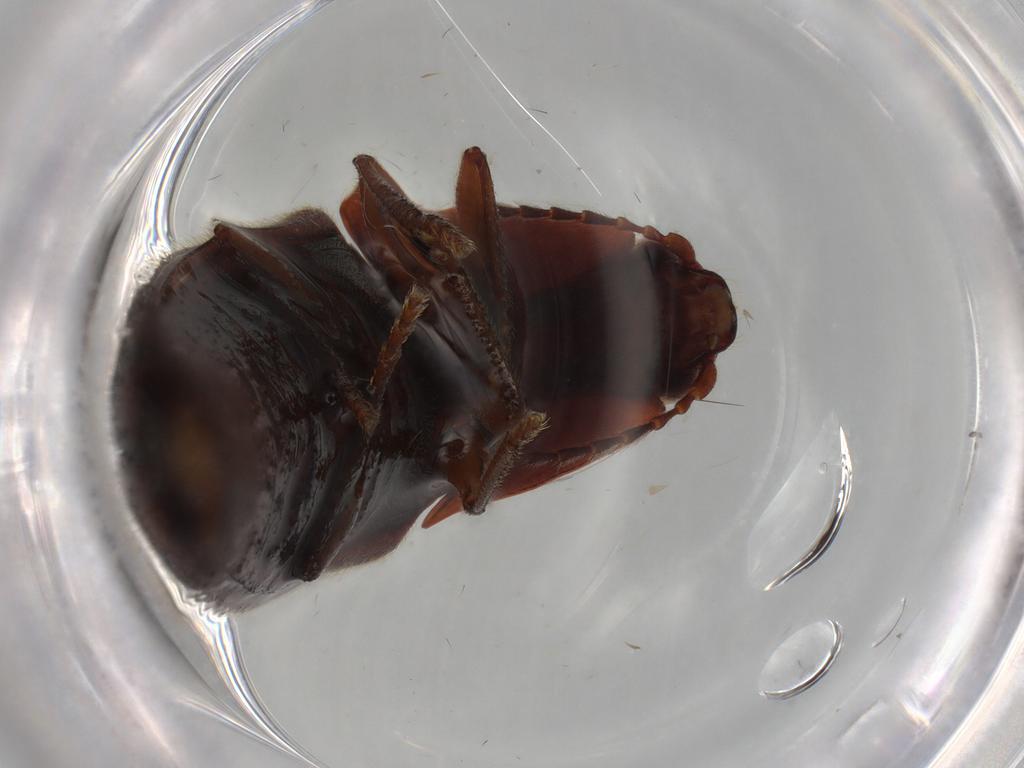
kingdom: Animalia
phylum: Arthropoda
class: Insecta
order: Coleoptera
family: Elateridae
